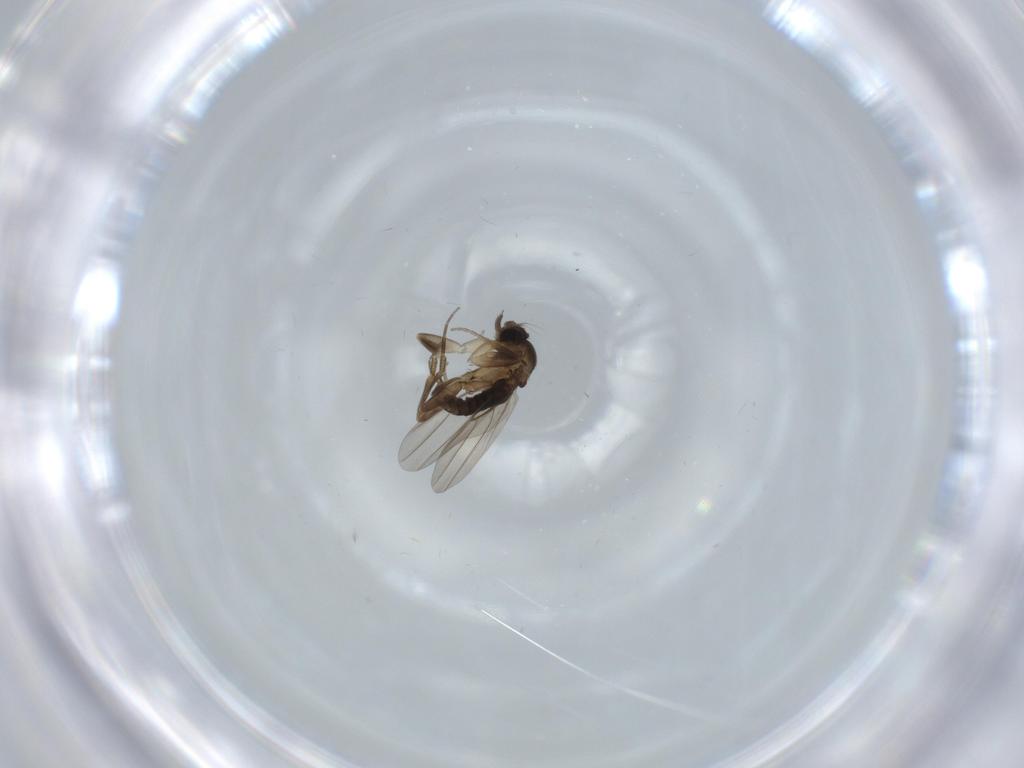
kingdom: Animalia
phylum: Arthropoda
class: Insecta
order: Diptera
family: Phoridae
